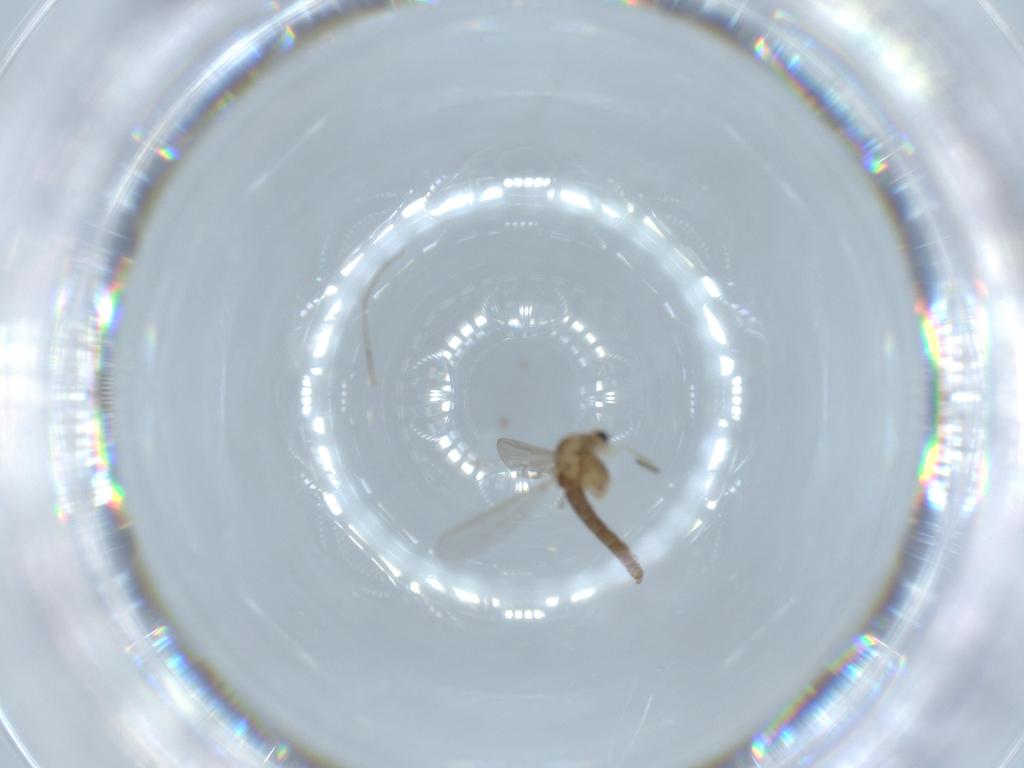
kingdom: Animalia
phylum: Arthropoda
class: Insecta
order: Diptera
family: Chironomidae
